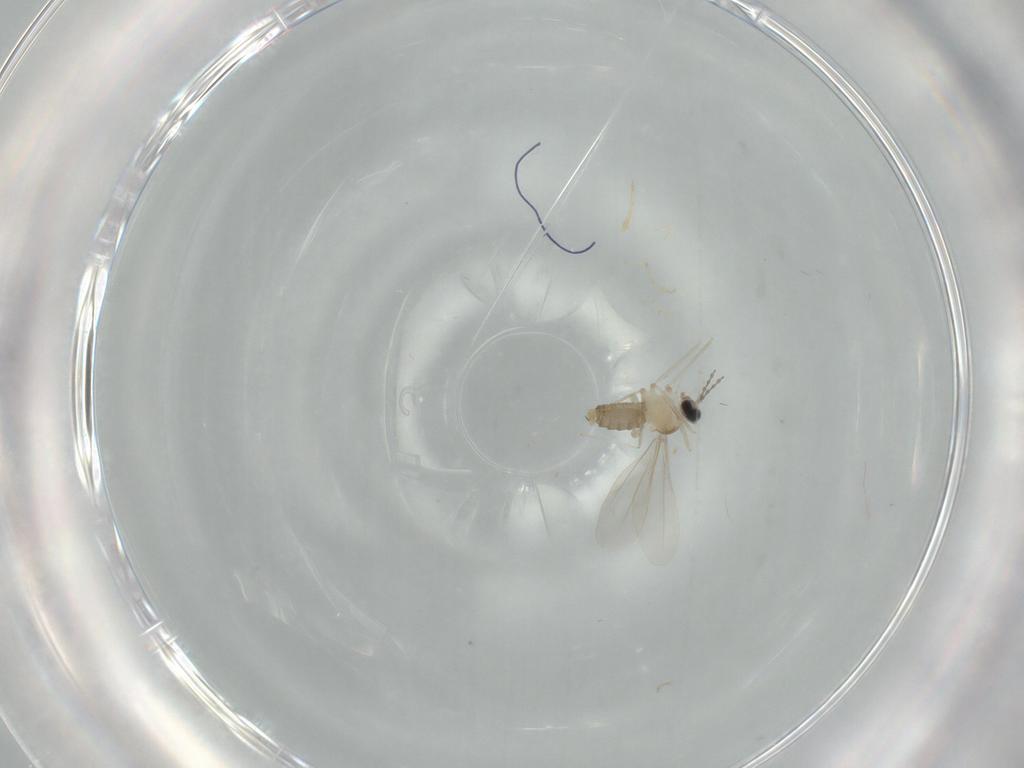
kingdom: Animalia
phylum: Arthropoda
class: Insecta
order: Diptera
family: Cecidomyiidae
